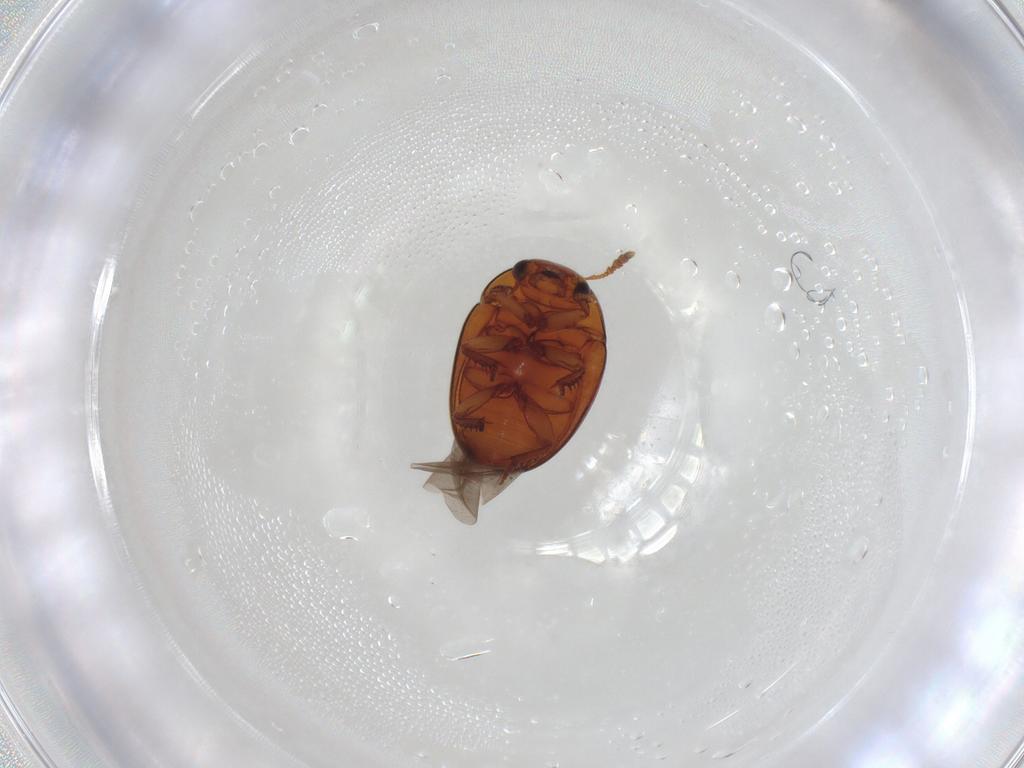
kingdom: Animalia
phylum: Arthropoda
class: Insecta
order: Coleoptera
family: Leiodidae
